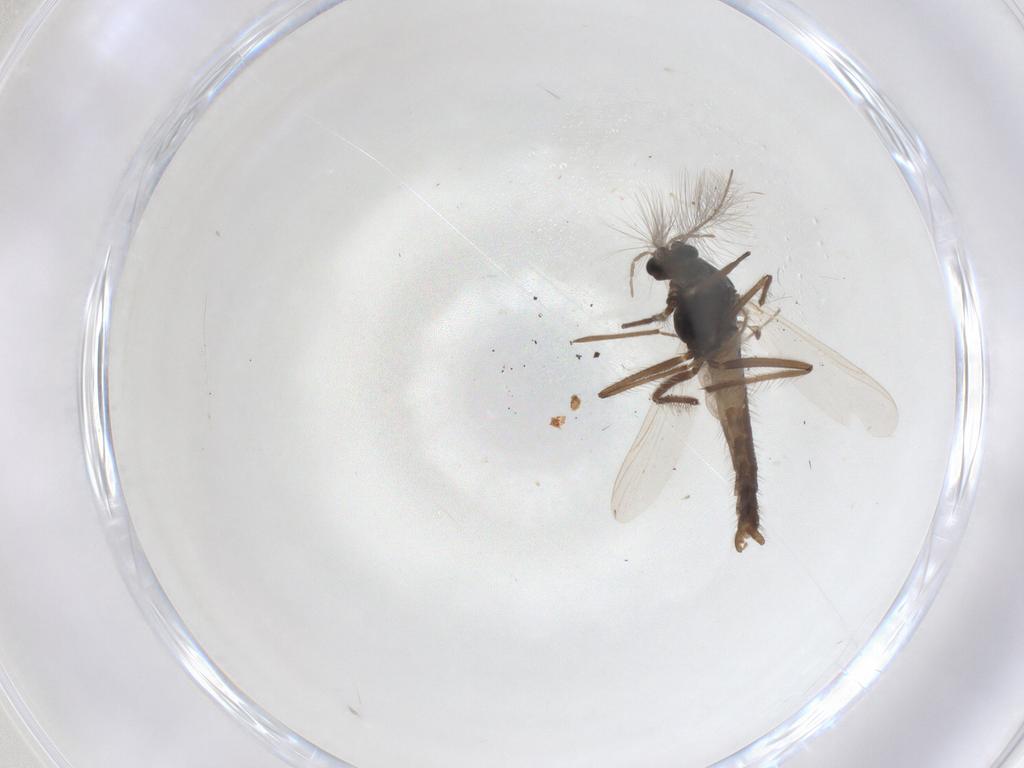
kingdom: Animalia
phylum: Arthropoda
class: Insecta
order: Diptera
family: Chironomidae
